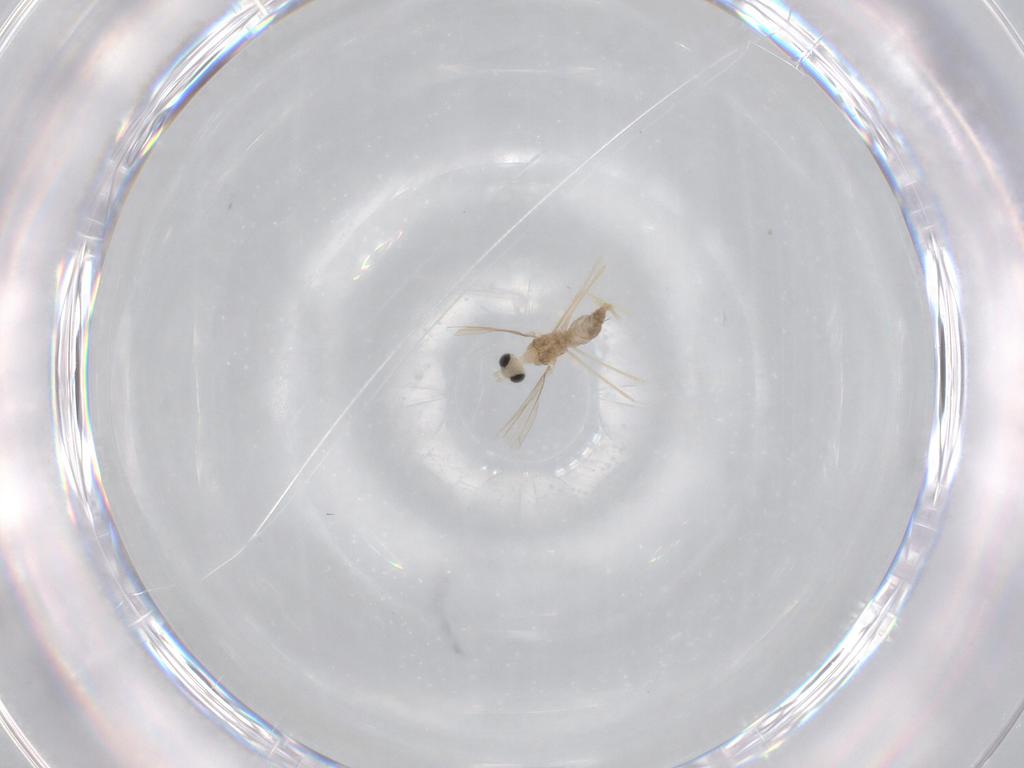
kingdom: Animalia
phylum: Arthropoda
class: Insecta
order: Diptera
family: Cecidomyiidae
